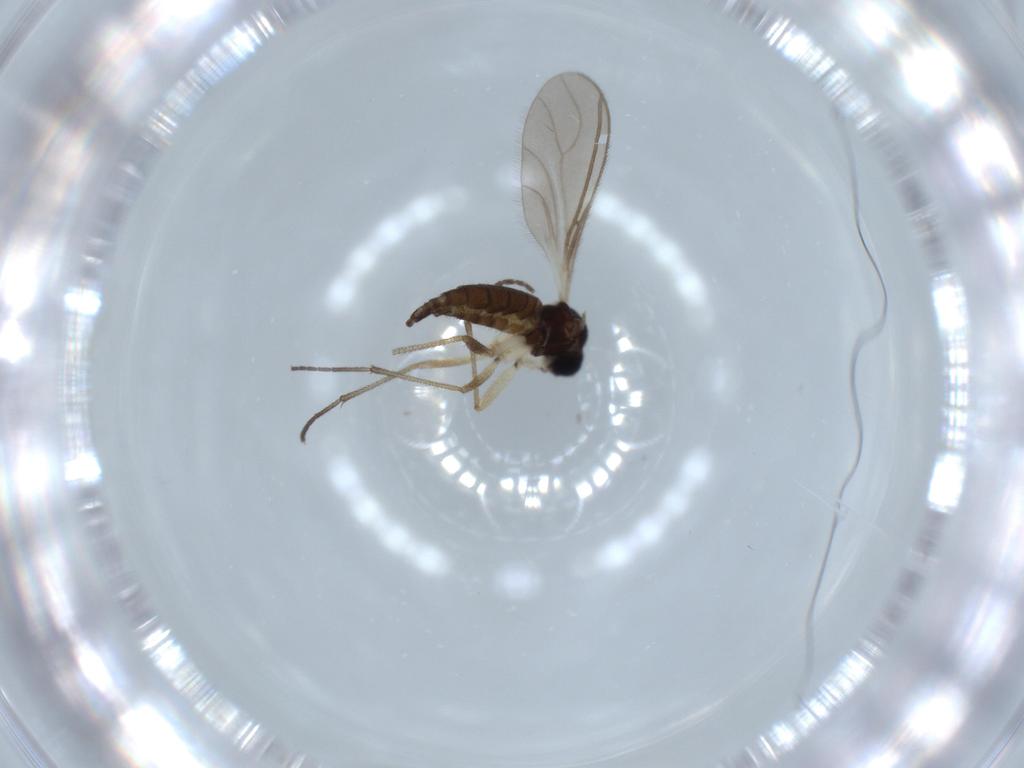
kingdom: Animalia
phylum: Arthropoda
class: Insecta
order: Diptera
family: Sciaridae
